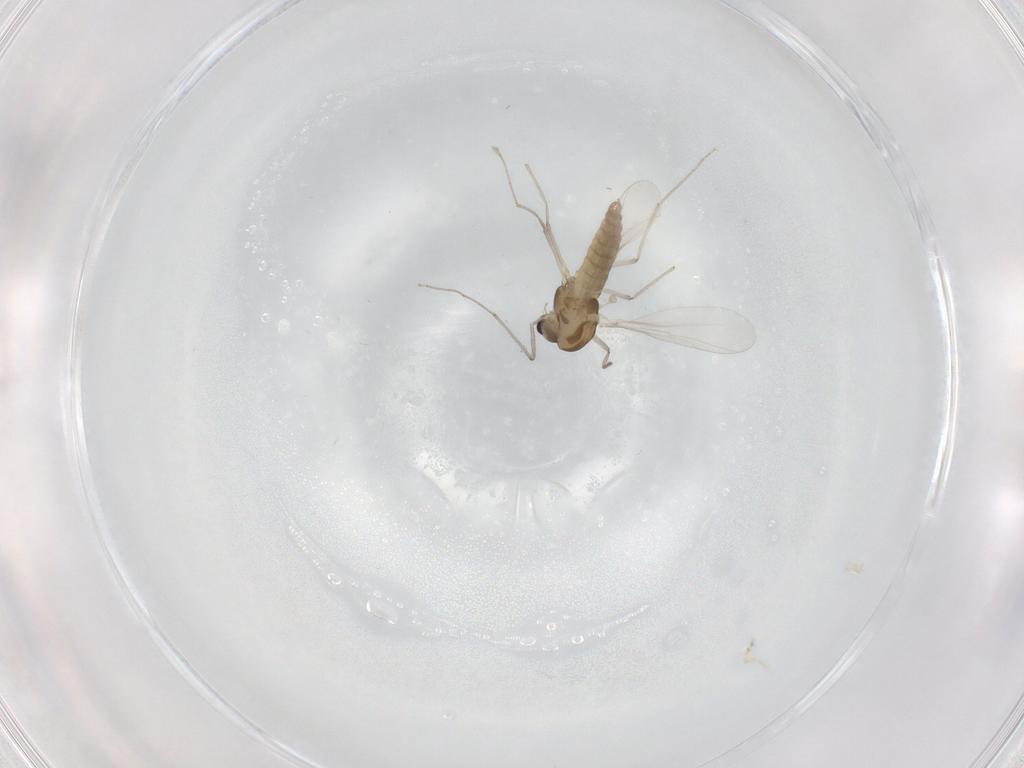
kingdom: Animalia
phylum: Arthropoda
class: Insecta
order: Diptera
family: Chironomidae
